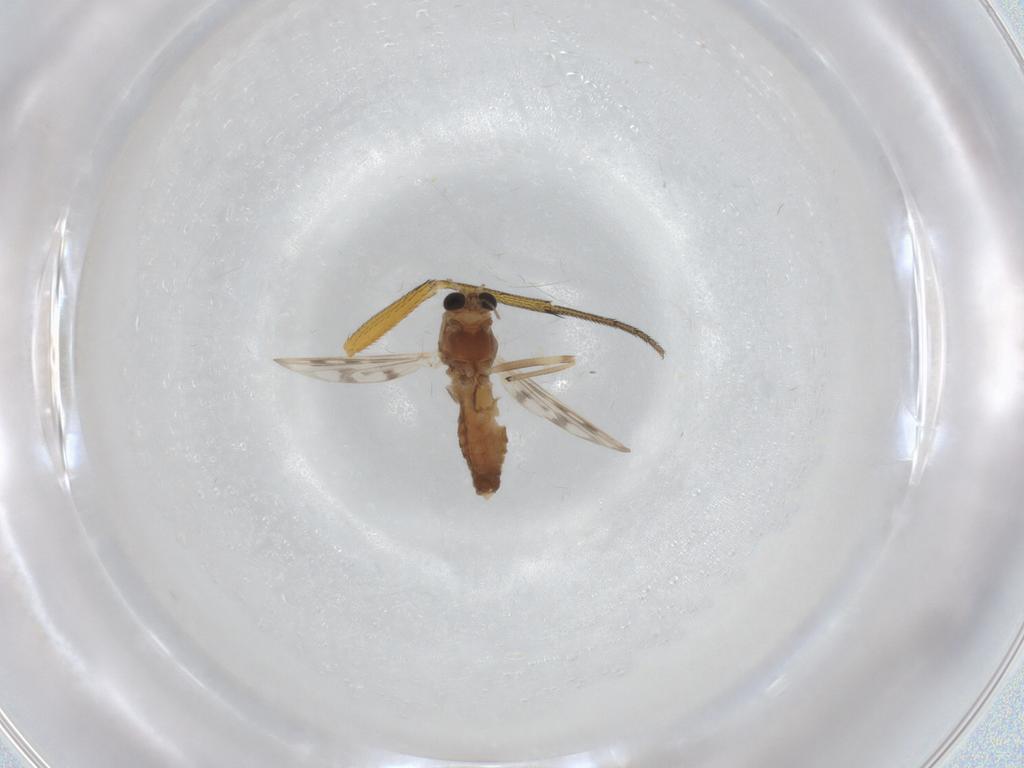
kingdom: Animalia
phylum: Arthropoda
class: Insecta
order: Diptera
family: Chironomidae
